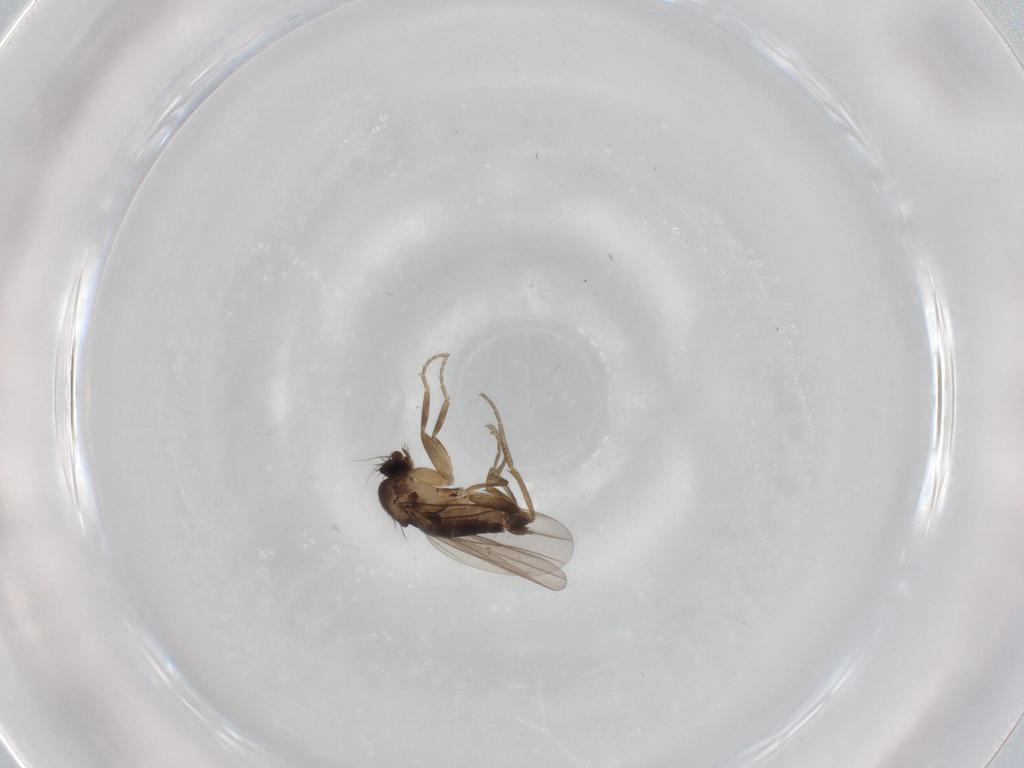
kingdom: Animalia
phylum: Arthropoda
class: Insecta
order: Diptera
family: Phoridae
